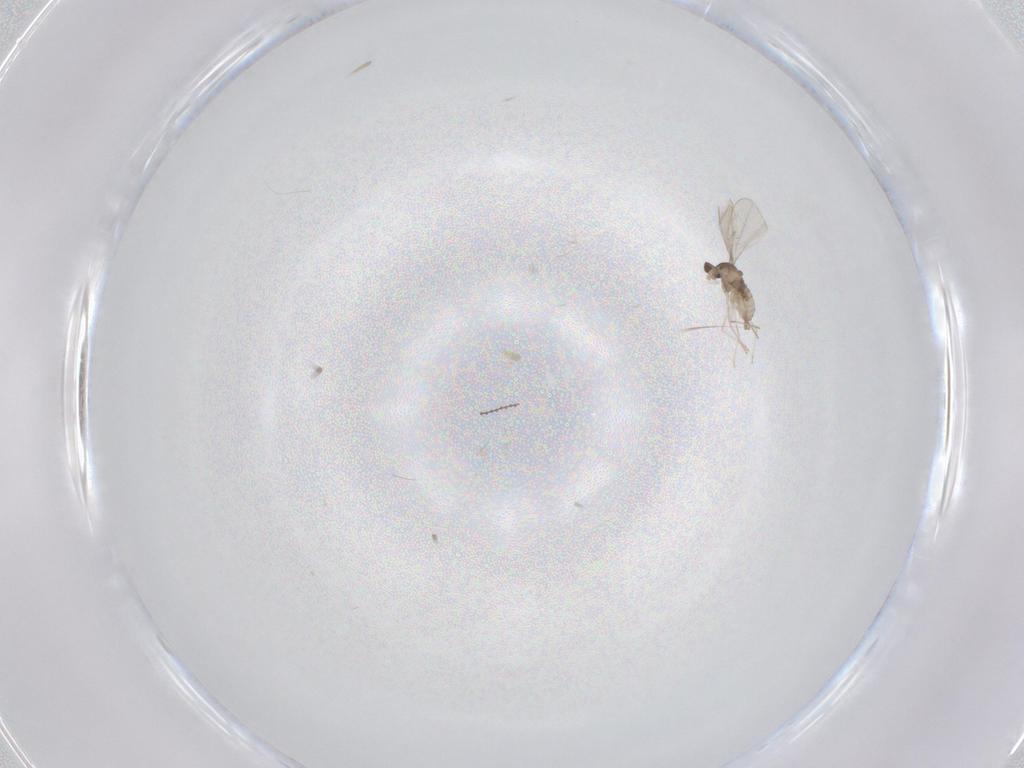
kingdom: Animalia
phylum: Arthropoda
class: Insecta
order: Diptera
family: Cecidomyiidae
